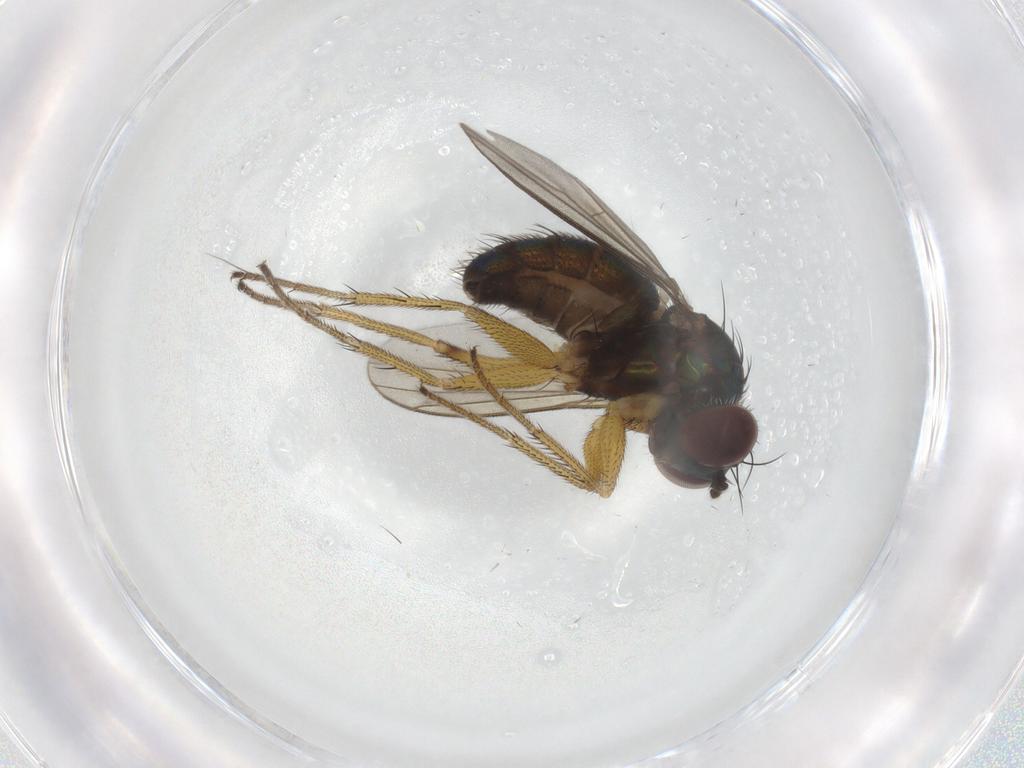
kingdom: Animalia
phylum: Arthropoda
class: Insecta
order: Diptera
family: Dolichopodidae
